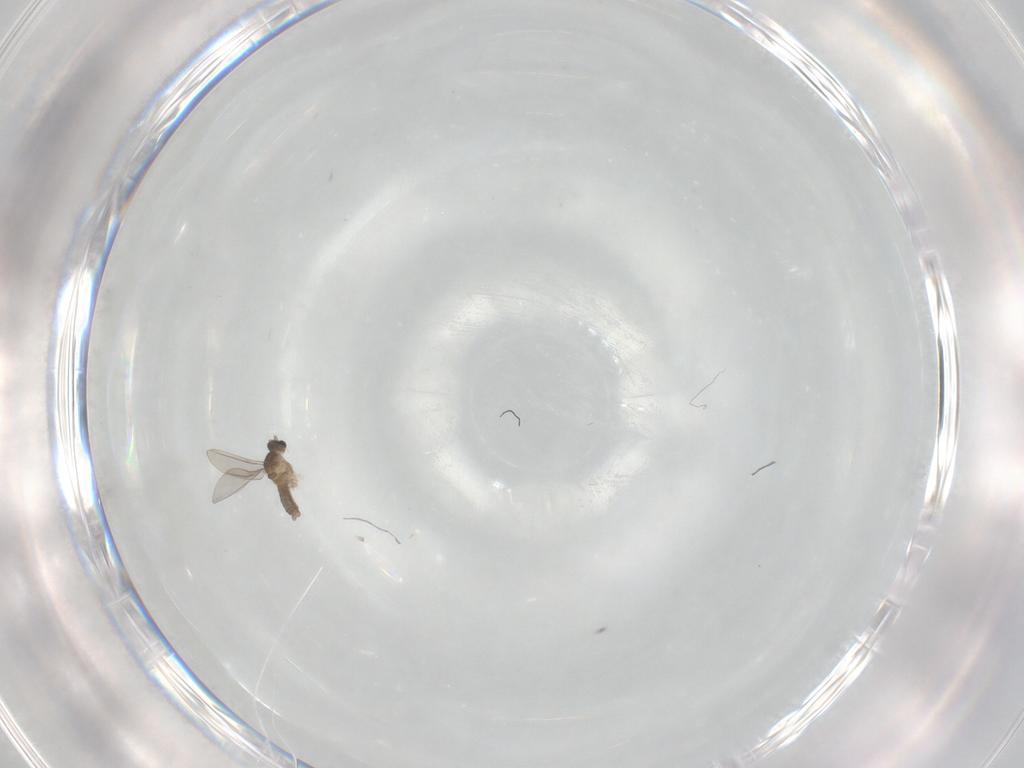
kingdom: Animalia
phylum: Arthropoda
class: Insecta
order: Diptera
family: Cecidomyiidae
